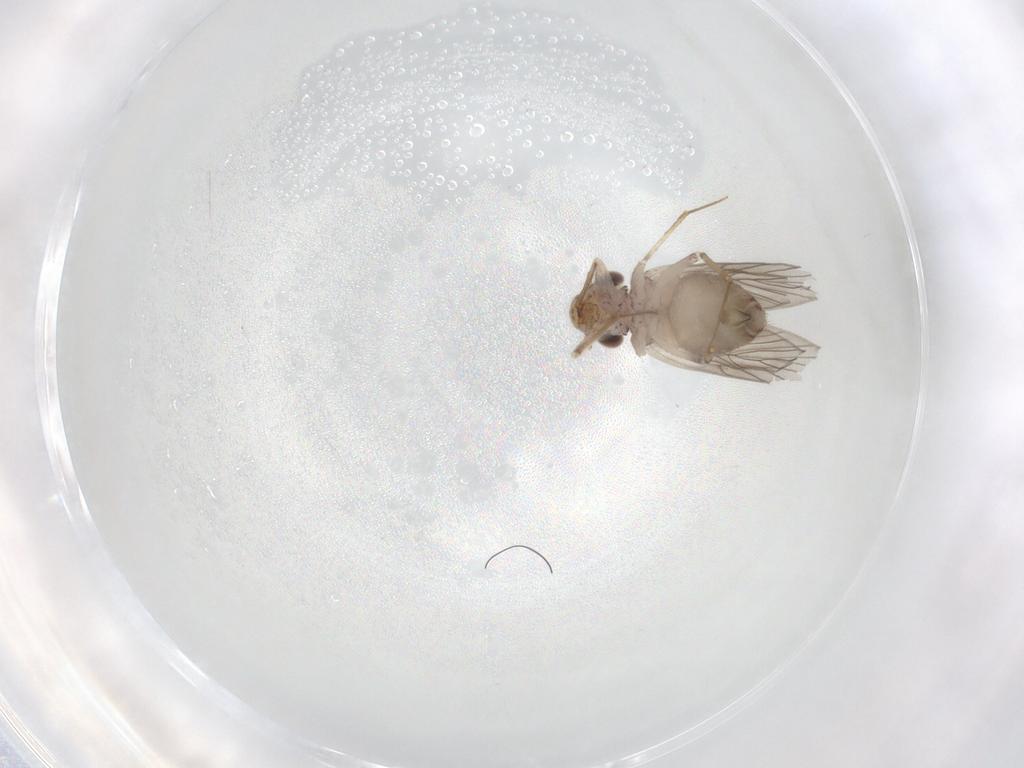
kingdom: Animalia
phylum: Arthropoda
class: Insecta
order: Psocodea
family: Lepidopsocidae
